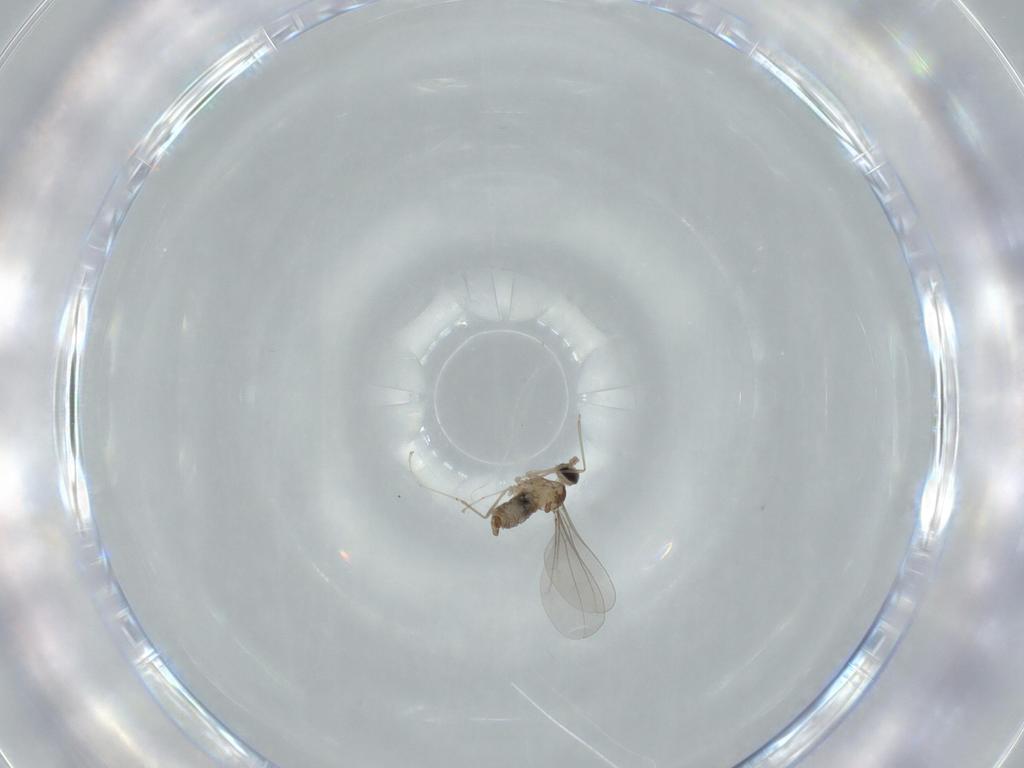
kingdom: Animalia
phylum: Arthropoda
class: Insecta
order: Diptera
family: Cecidomyiidae
